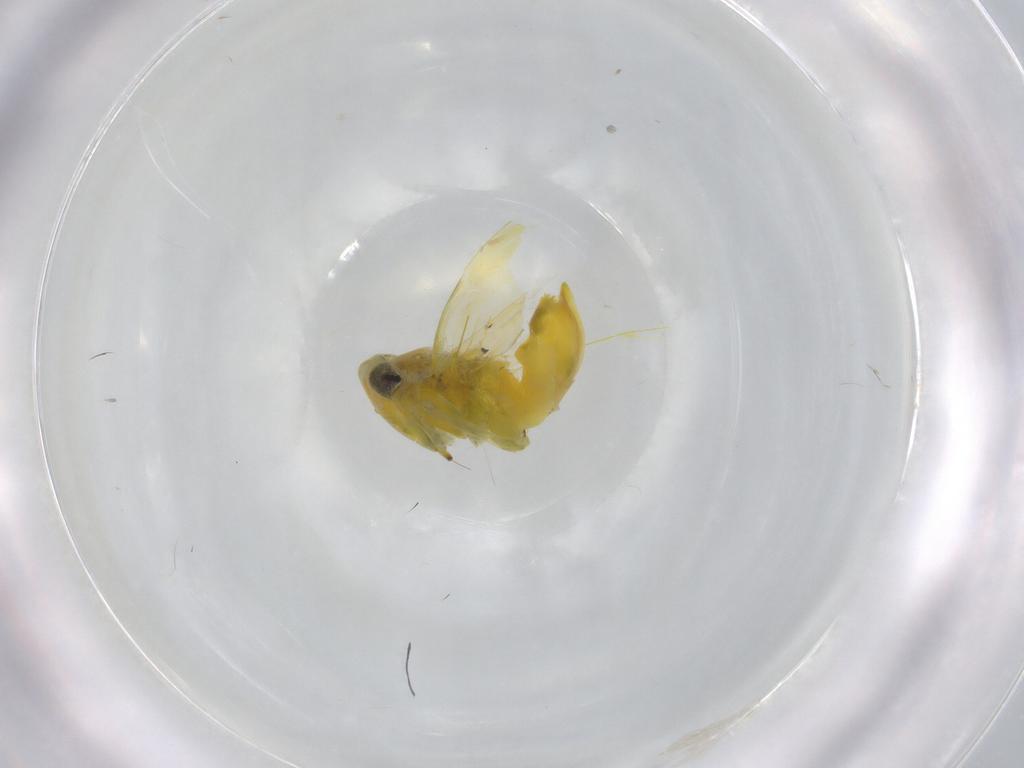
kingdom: Animalia
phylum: Arthropoda
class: Insecta
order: Hemiptera
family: Cicadellidae
